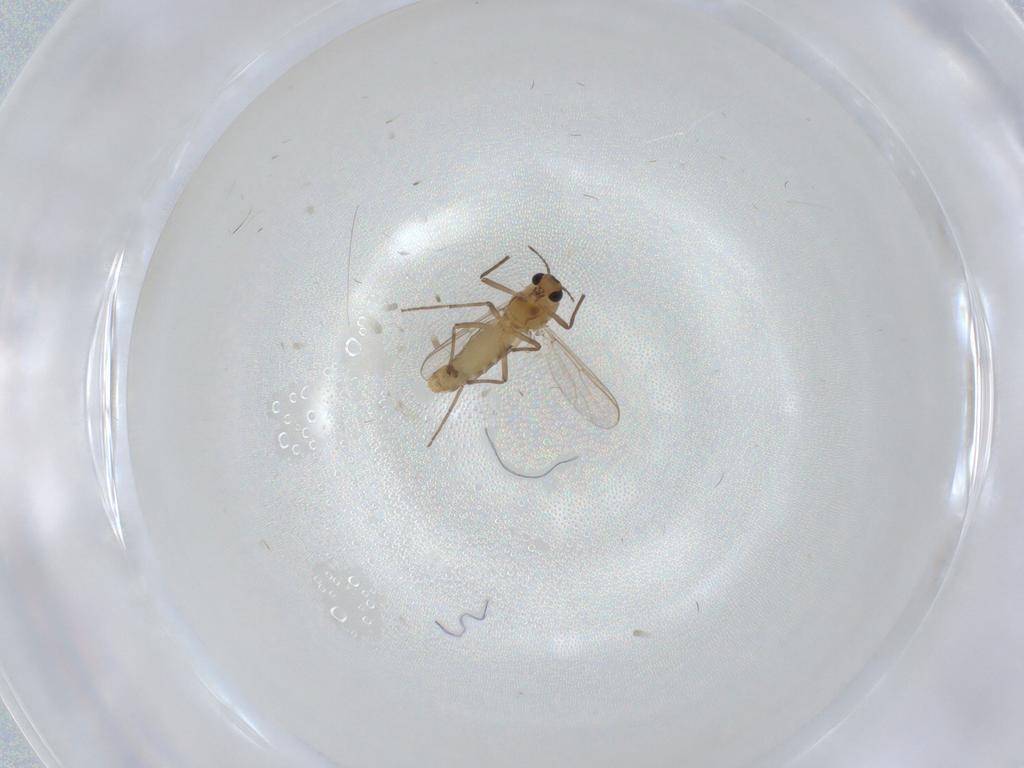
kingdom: Animalia
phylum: Arthropoda
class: Insecta
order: Diptera
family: Chironomidae
